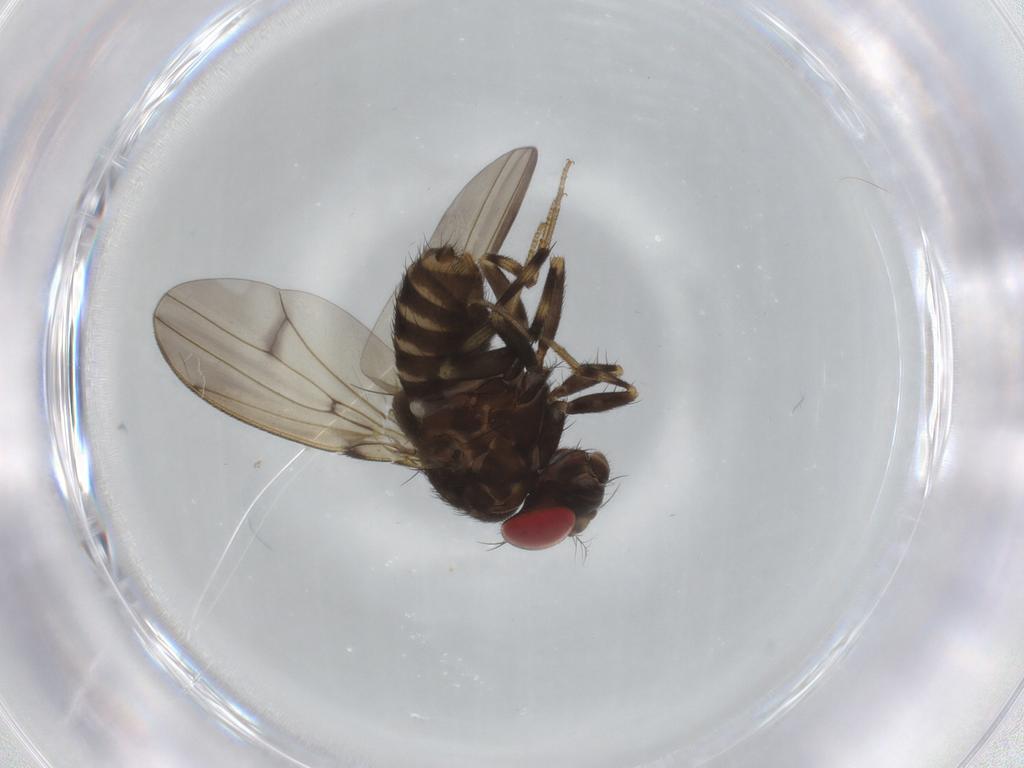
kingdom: Animalia
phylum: Arthropoda
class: Insecta
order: Diptera
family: Drosophilidae
